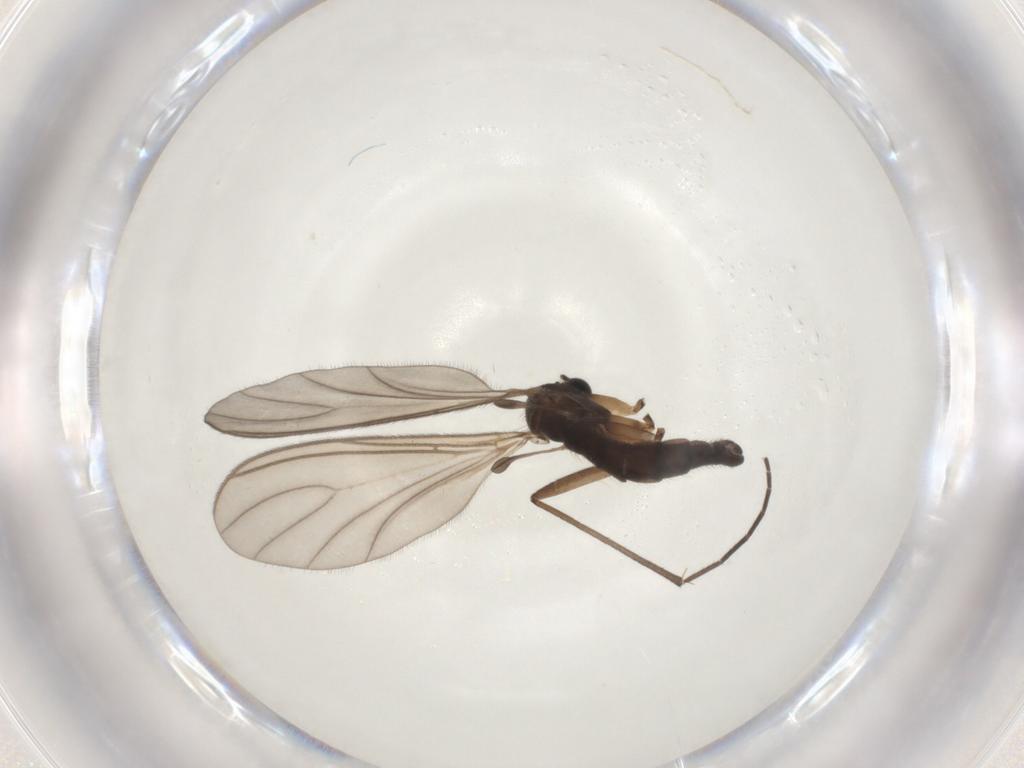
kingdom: Animalia
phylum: Arthropoda
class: Insecta
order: Diptera
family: Sciaridae
